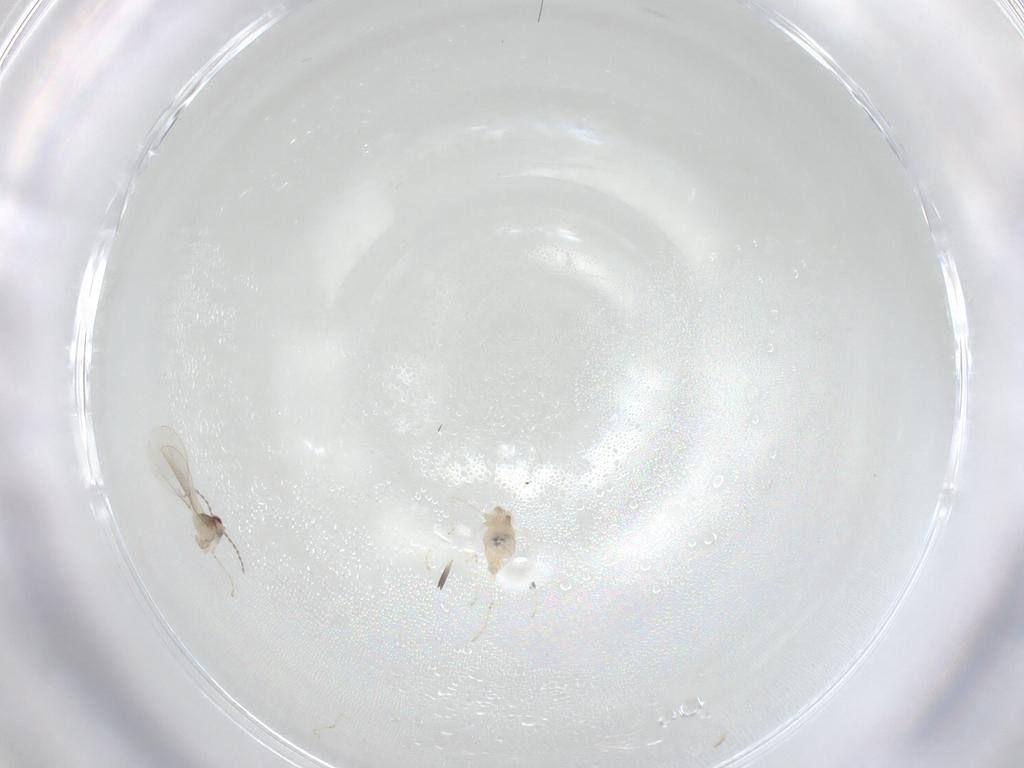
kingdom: Animalia
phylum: Arthropoda
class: Insecta
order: Diptera
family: Cecidomyiidae
